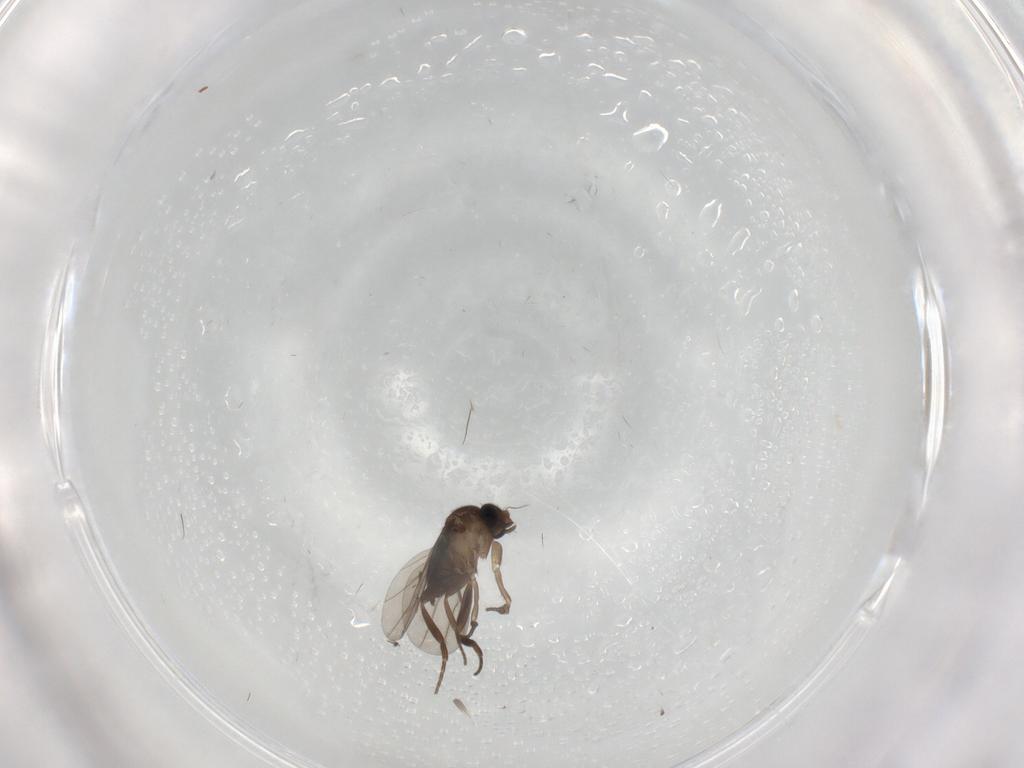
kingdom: Animalia
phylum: Arthropoda
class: Insecta
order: Diptera
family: Phoridae
